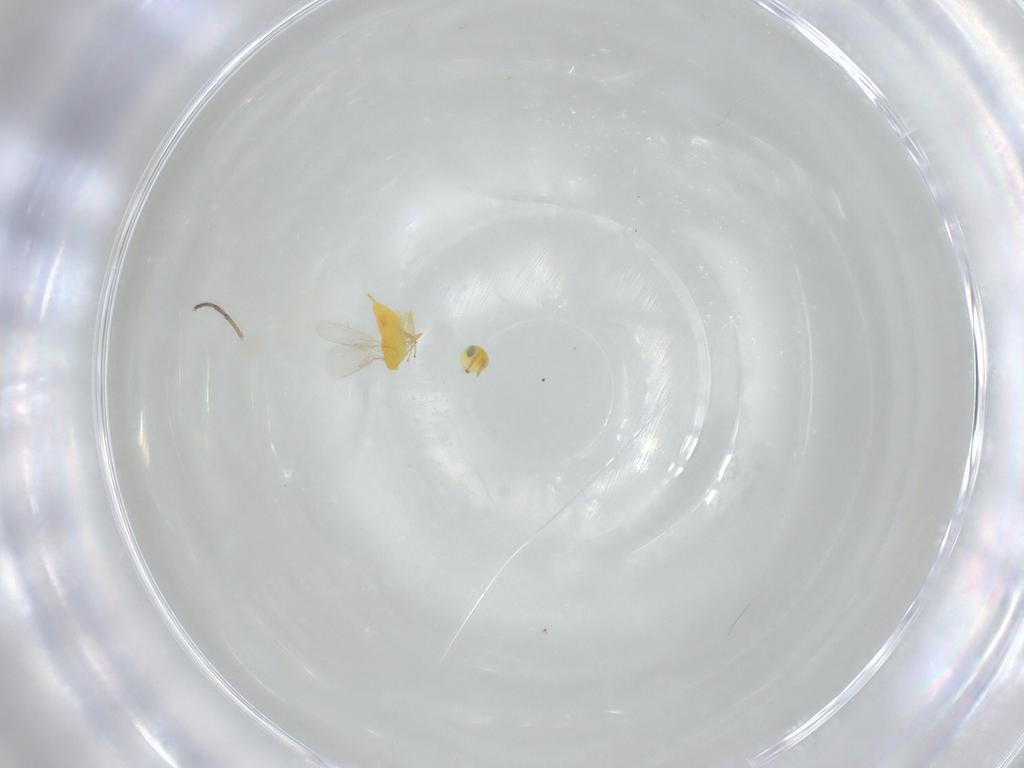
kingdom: Animalia
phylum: Arthropoda
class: Insecta
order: Hymenoptera
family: Aphelinidae
